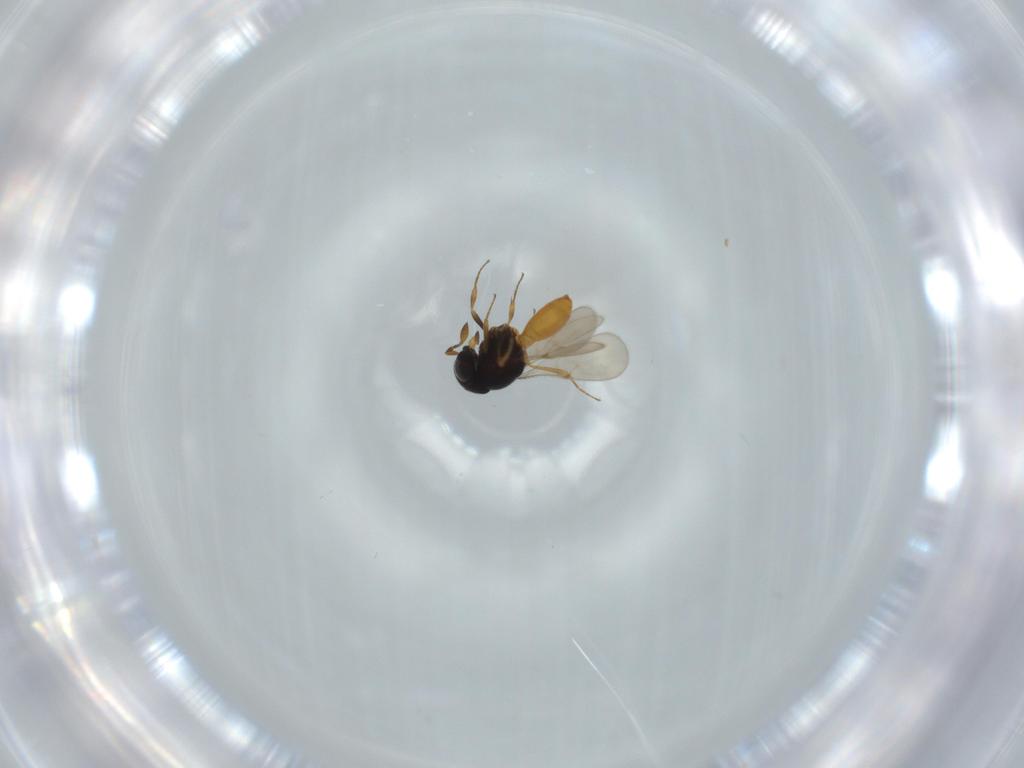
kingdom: Animalia
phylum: Arthropoda
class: Insecta
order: Hymenoptera
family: Scelionidae
